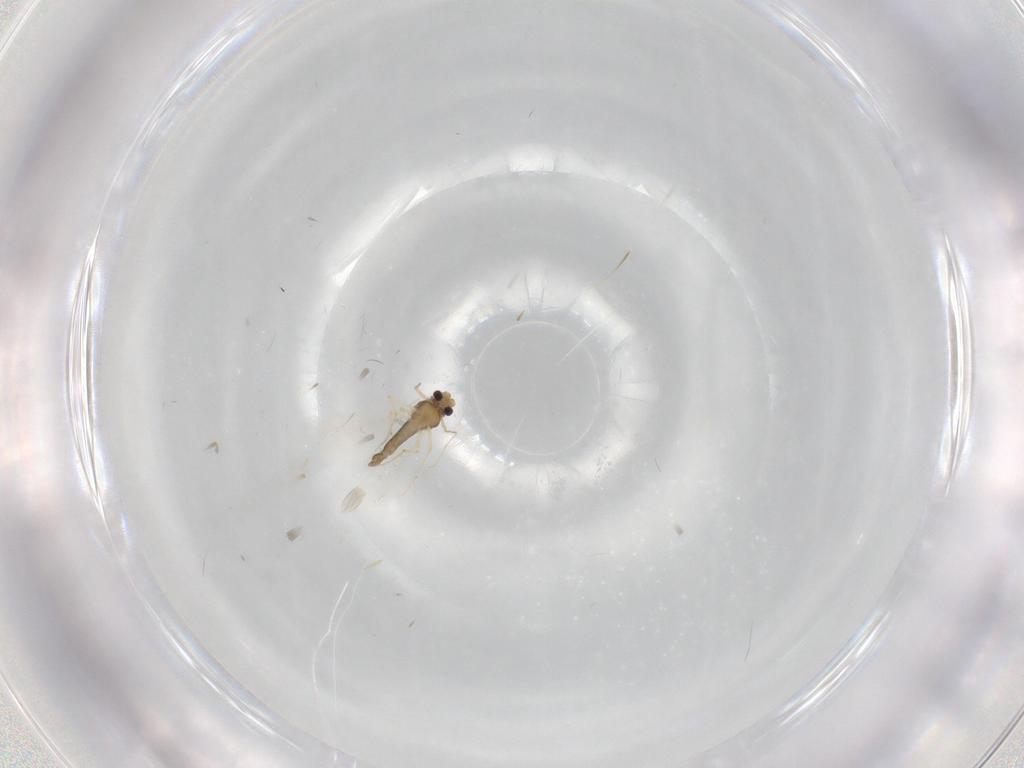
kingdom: Animalia
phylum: Arthropoda
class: Insecta
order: Diptera
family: Chironomidae
